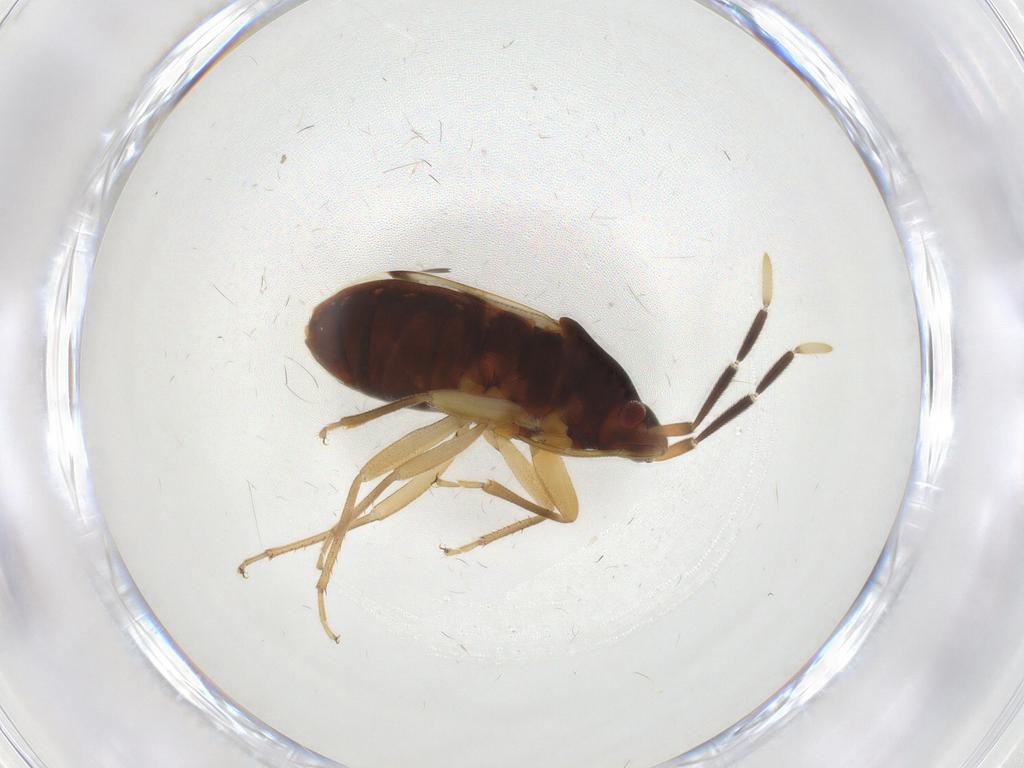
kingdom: Animalia
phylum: Arthropoda
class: Insecta
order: Hemiptera
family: Rhyparochromidae
